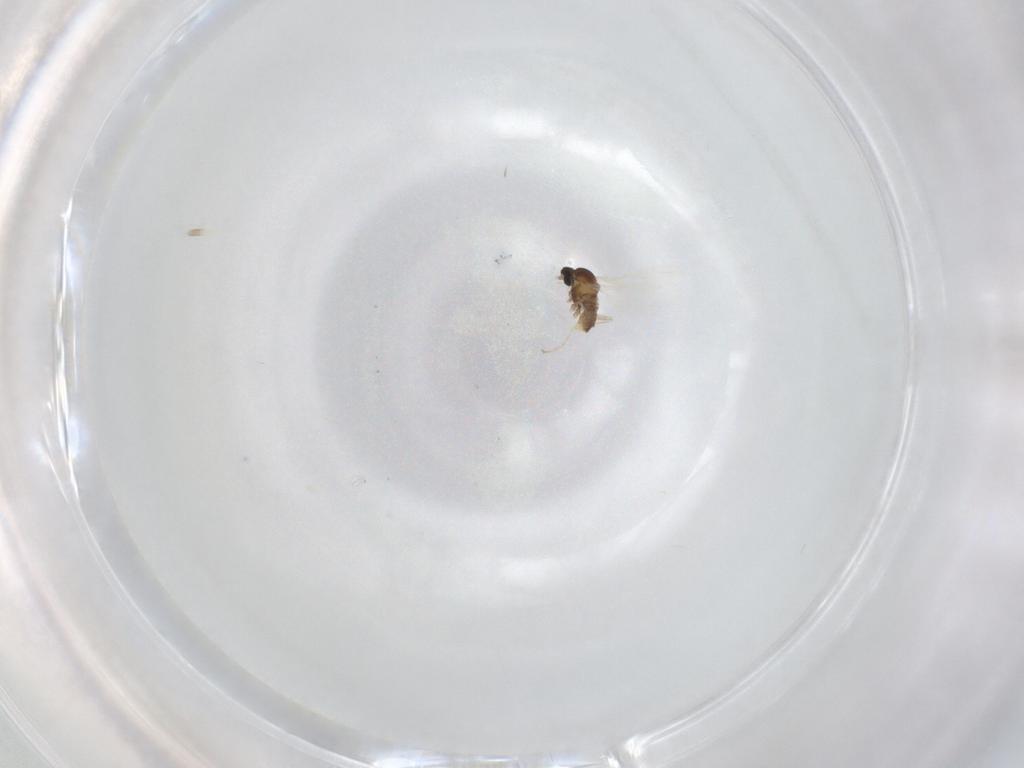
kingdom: Animalia
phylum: Arthropoda
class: Insecta
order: Diptera
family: Cecidomyiidae
